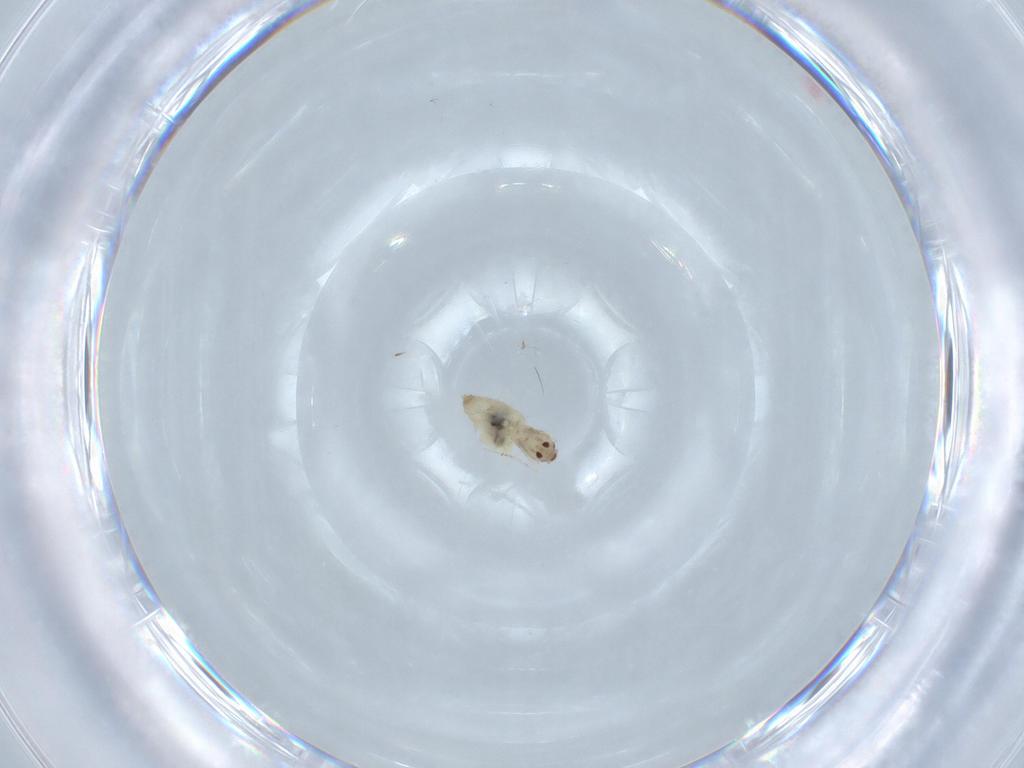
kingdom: Animalia
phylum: Arthropoda
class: Insecta
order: Diptera
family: Cecidomyiidae
